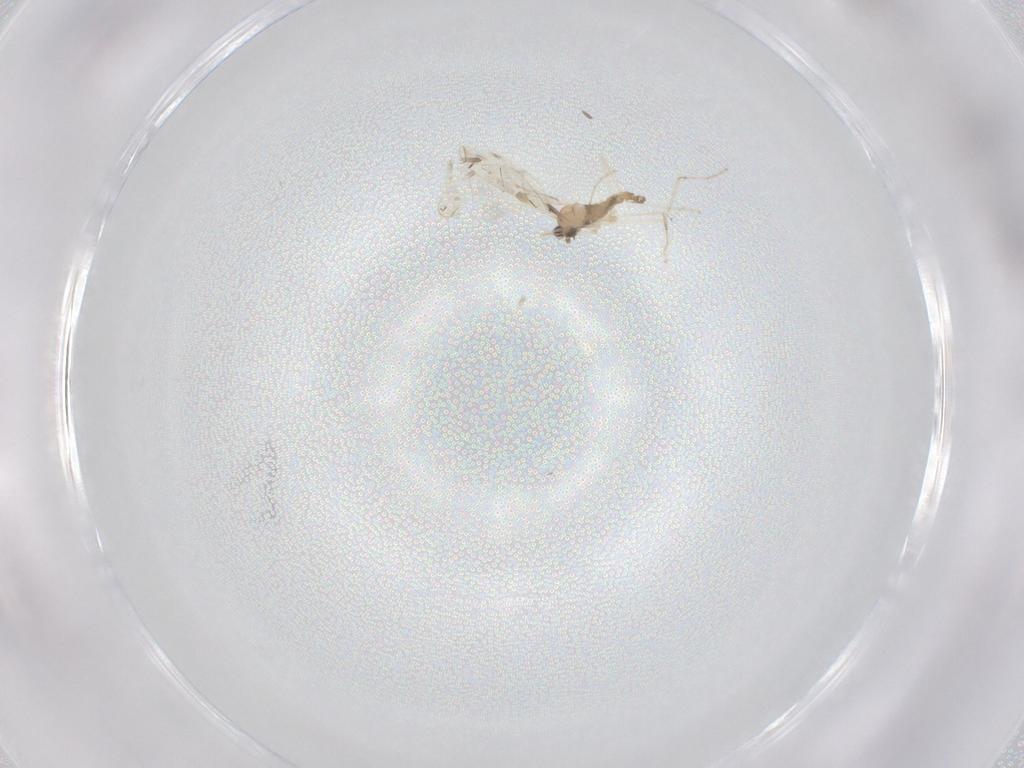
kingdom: Animalia
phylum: Arthropoda
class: Insecta
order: Diptera
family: Cecidomyiidae
